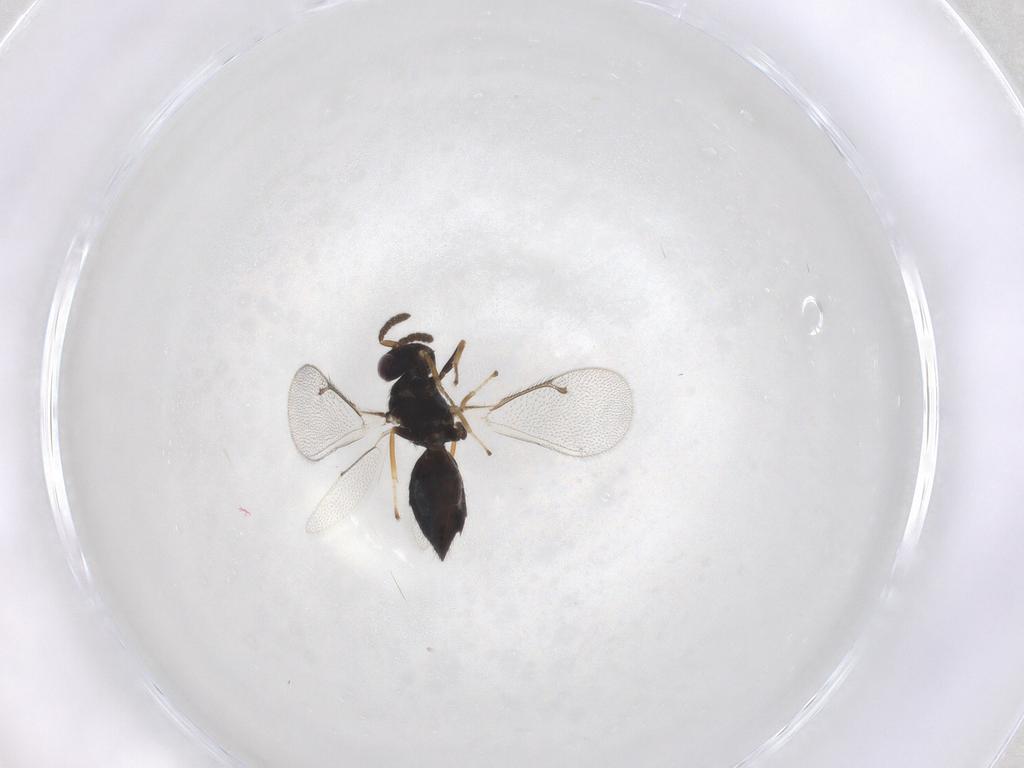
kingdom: Animalia
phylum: Arthropoda
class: Insecta
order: Hymenoptera
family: Eulophidae
